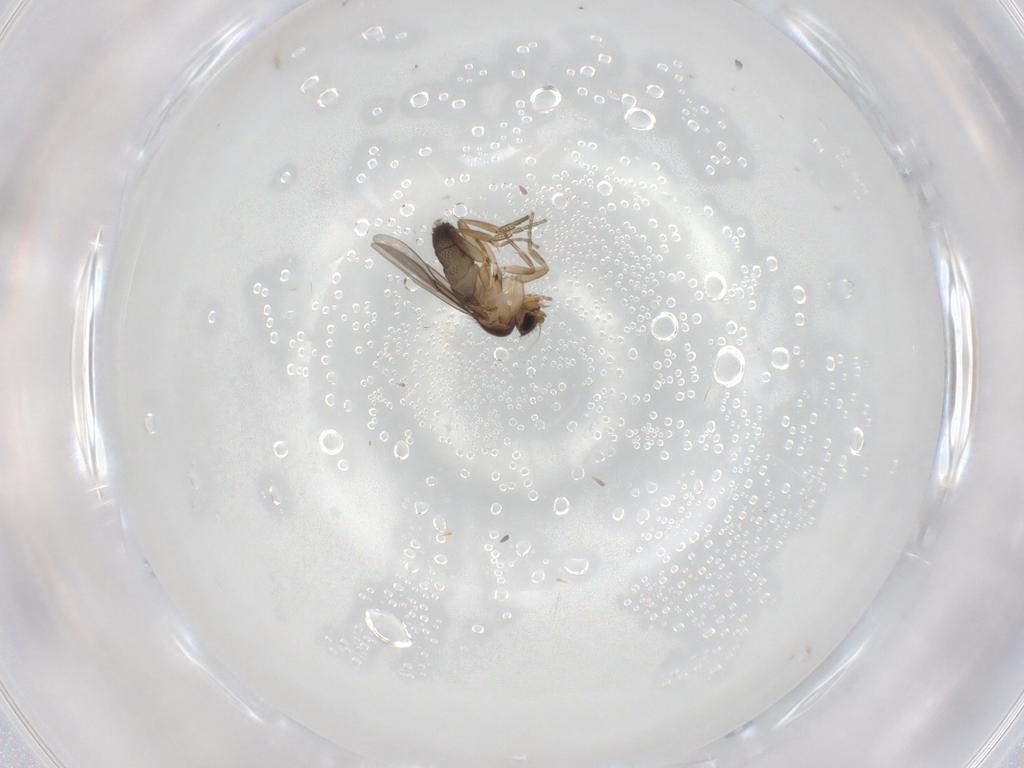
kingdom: Animalia
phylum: Arthropoda
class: Insecta
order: Diptera
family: Phoridae
